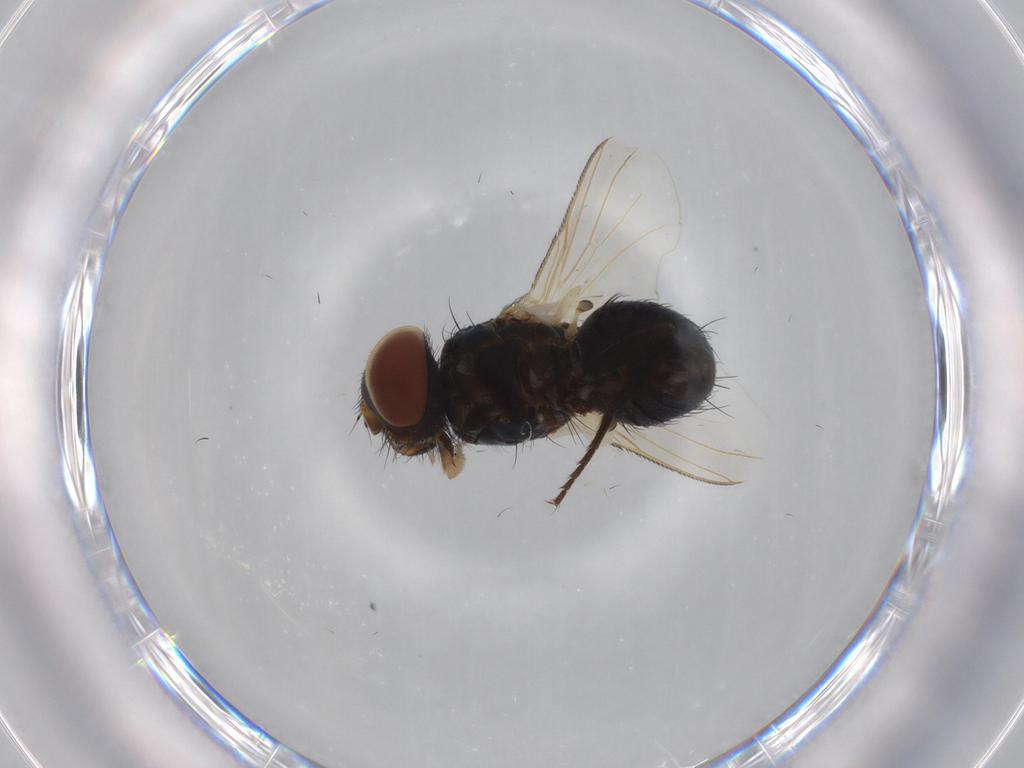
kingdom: Animalia
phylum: Arthropoda
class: Insecta
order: Diptera
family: Tachinidae
